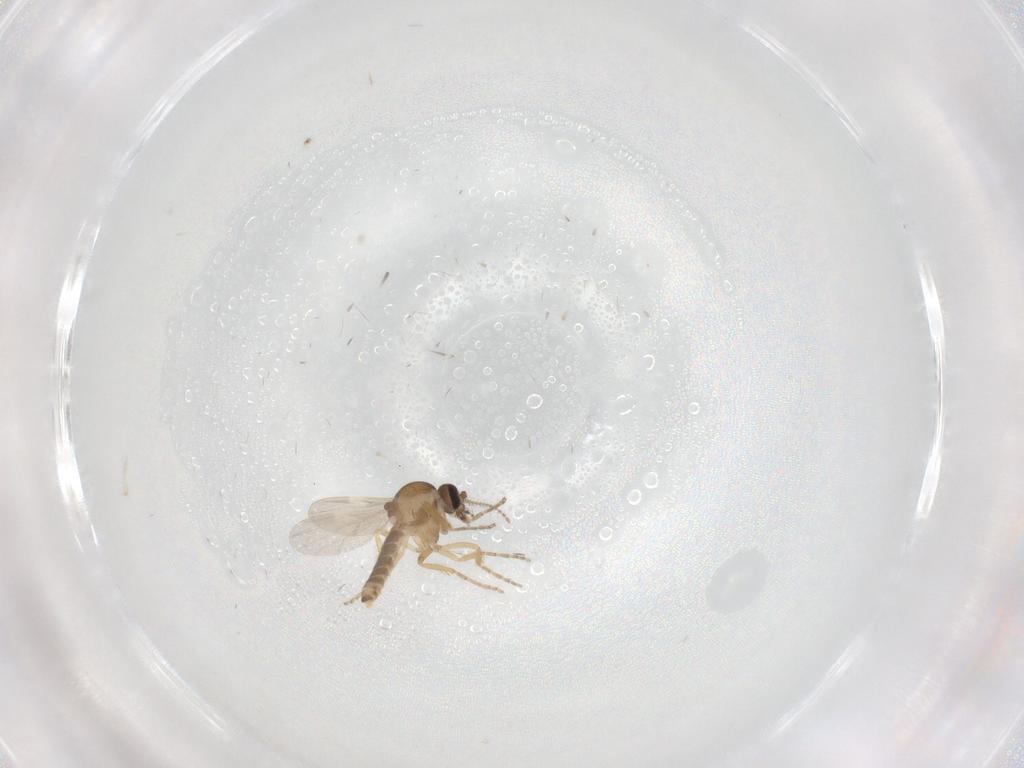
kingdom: Animalia
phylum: Arthropoda
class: Insecta
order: Diptera
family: Ceratopogonidae
